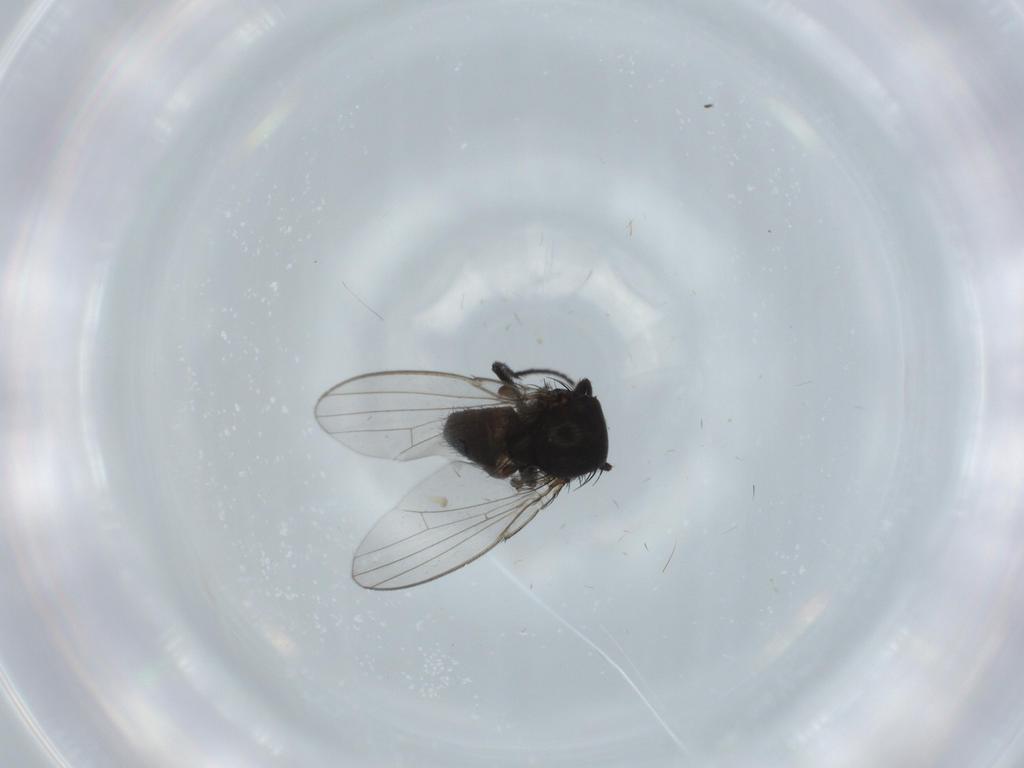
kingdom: Animalia
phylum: Arthropoda
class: Insecta
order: Diptera
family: Milichiidae
